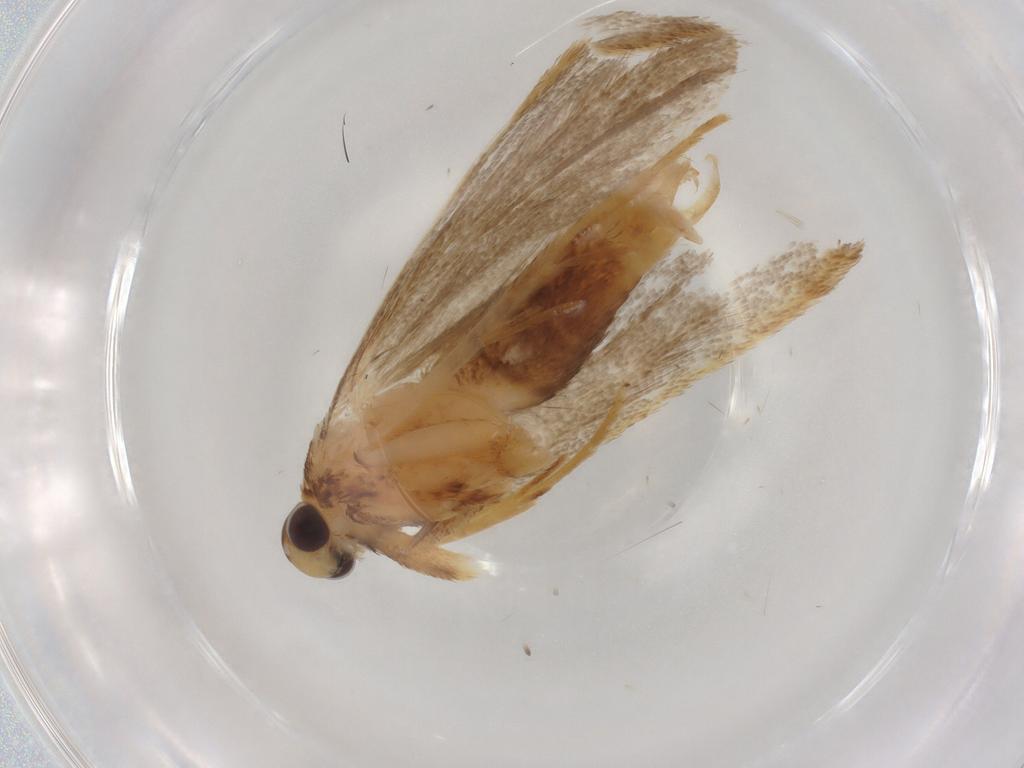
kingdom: Animalia
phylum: Arthropoda
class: Insecta
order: Lepidoptera
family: Lecithoceridae
